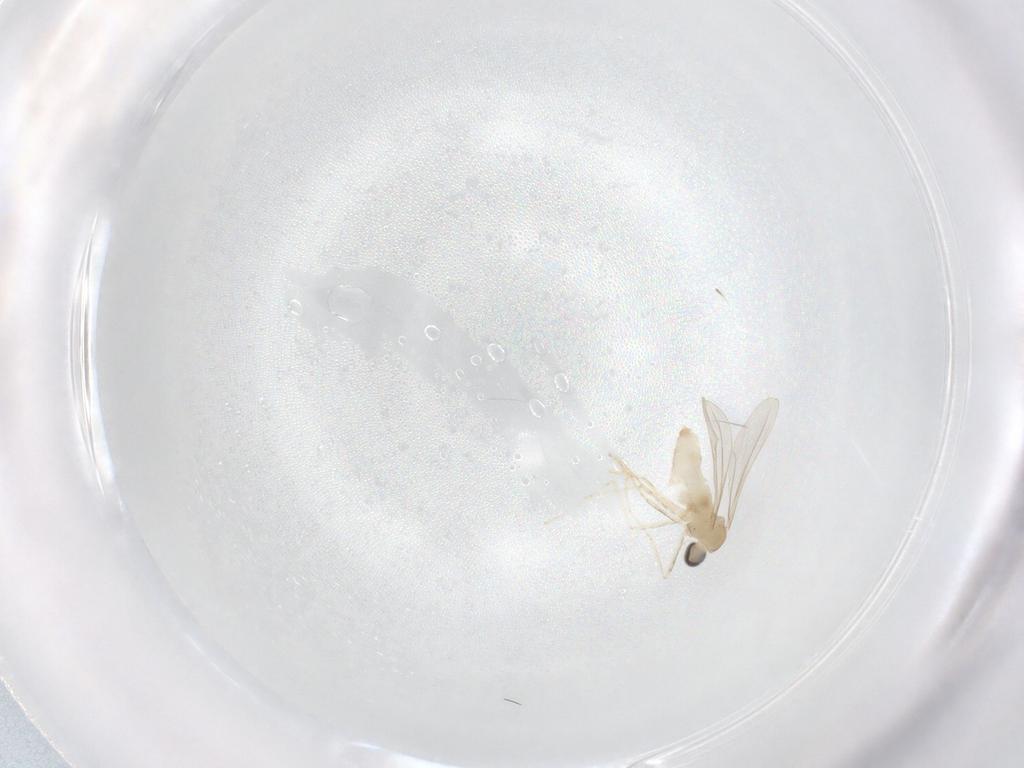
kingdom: Animalia
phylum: Arthropoda
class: Insecta
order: Diptera
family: Cecidomyiidae
